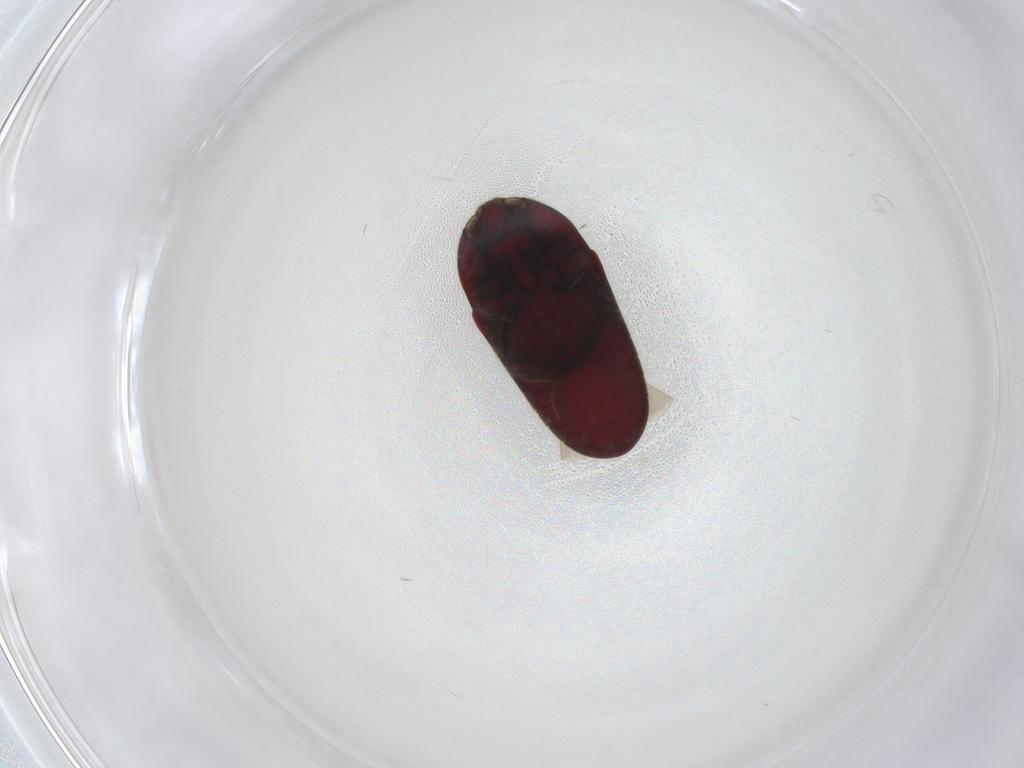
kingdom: Animalia
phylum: Arthropoda
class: Insecta
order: Coleoptera
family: Throscidae
